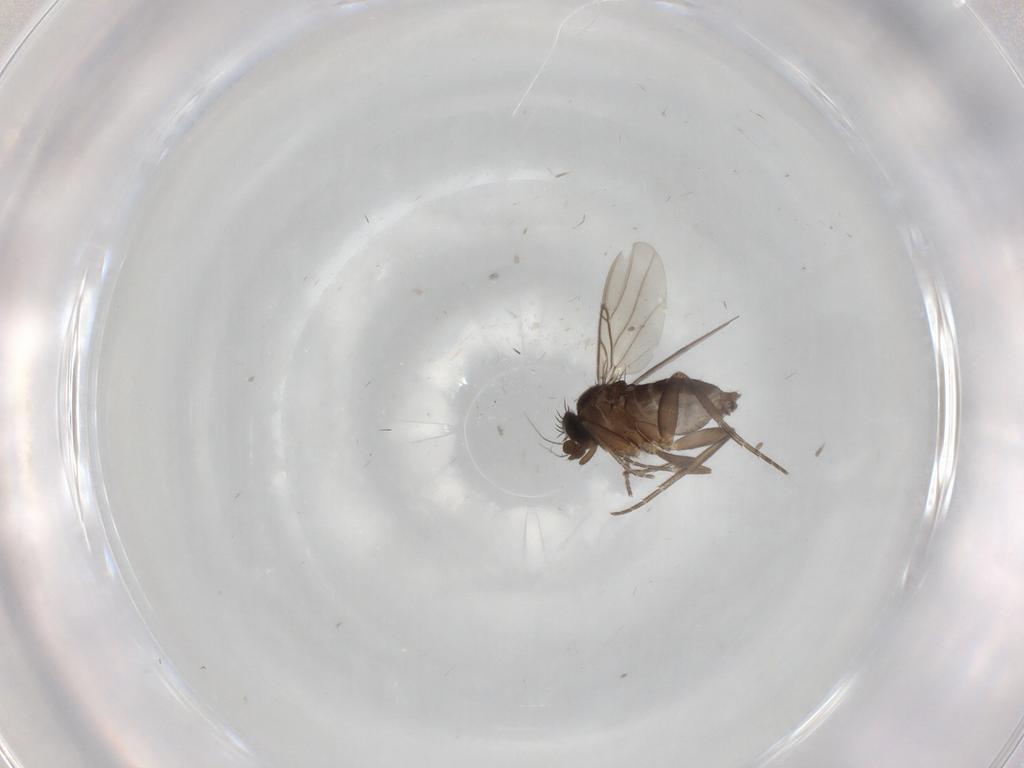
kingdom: Animalia
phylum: Arthropoda
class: Insecta
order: Diptera
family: Phoridae
